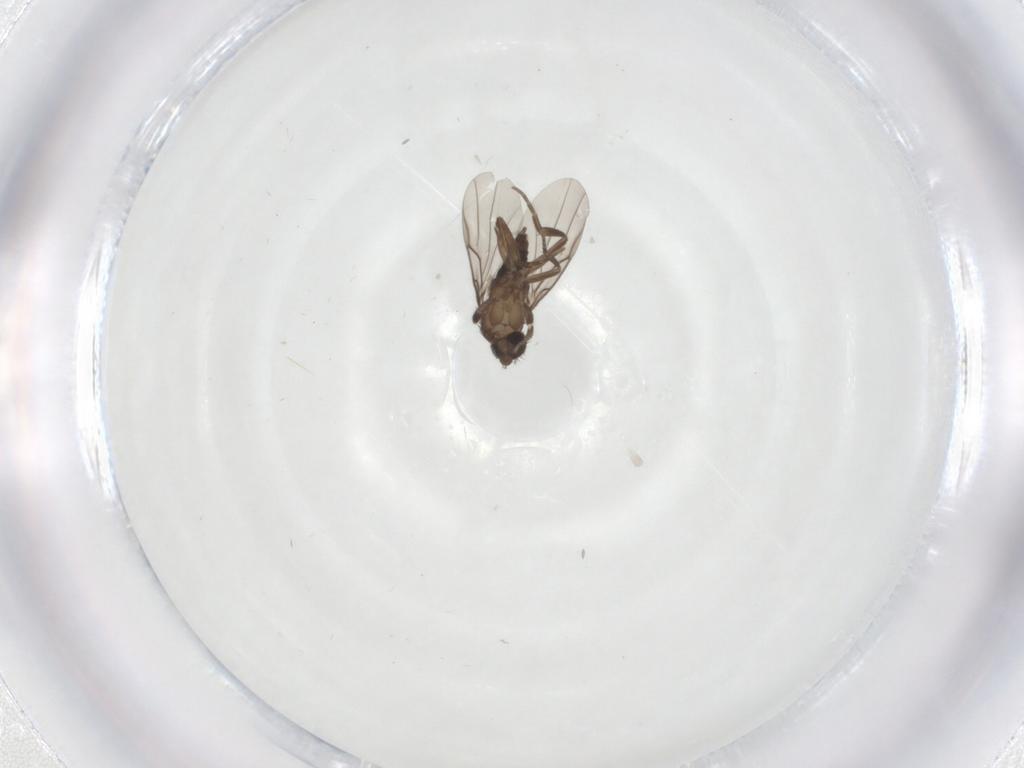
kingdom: Animalia
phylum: Arthropoda
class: Insecta
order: Diptera
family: Phoridae
